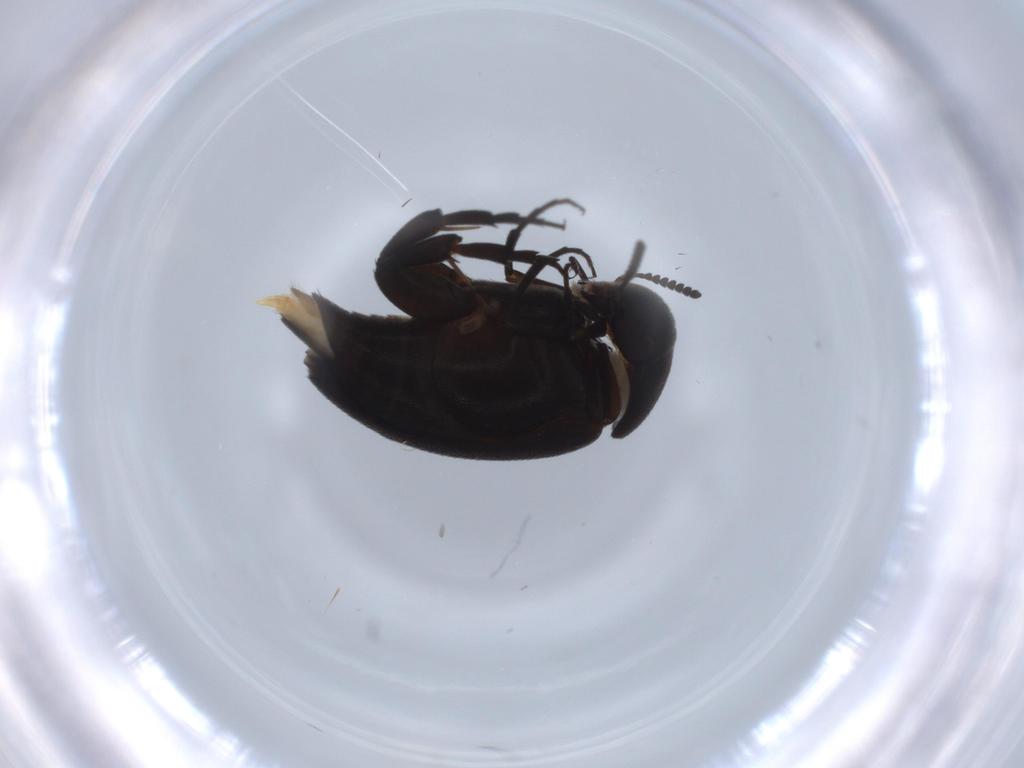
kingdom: Animalia
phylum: Arthropoda
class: Insecta
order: Coleoptera
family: Mordellidae
